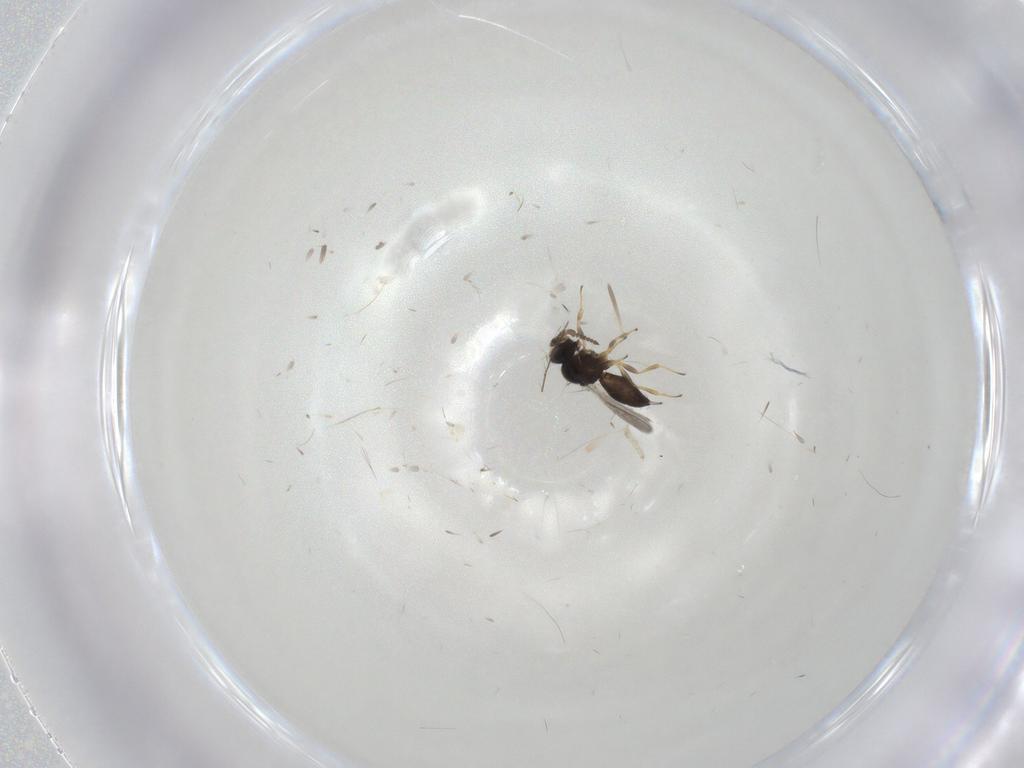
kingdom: Animalia
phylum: Arthropoda
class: Insecta
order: Hymenoptera
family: Scelionidae
